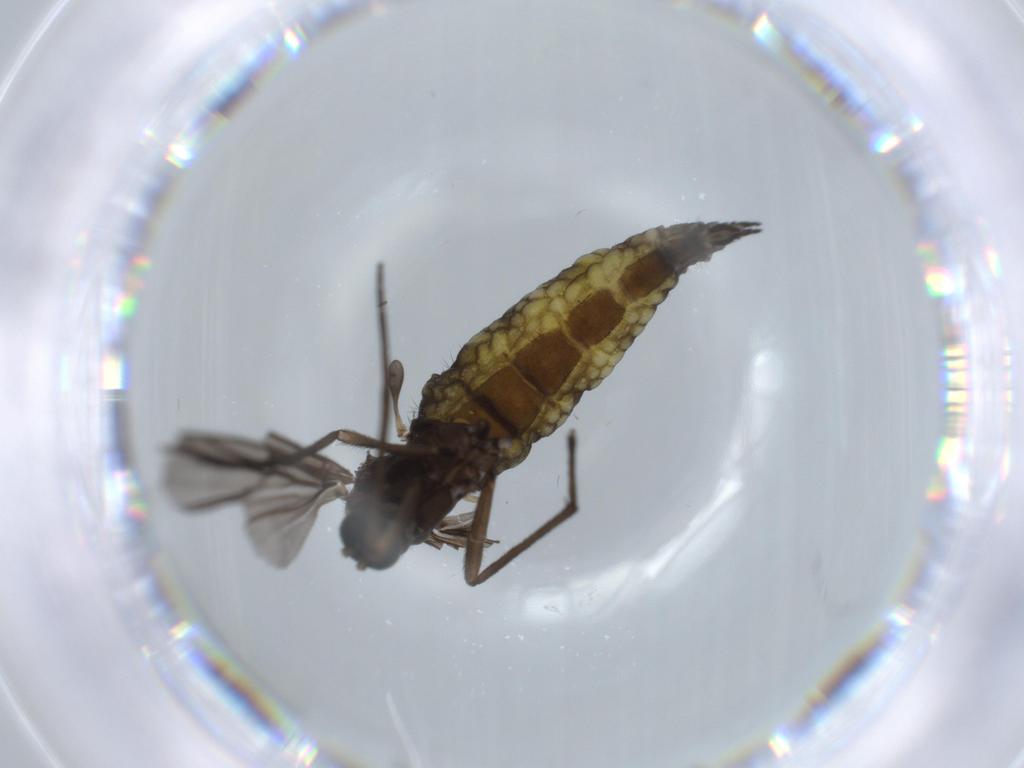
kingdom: Animalia
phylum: Arthropoda
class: Insecta
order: Diptera
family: Sciaridae
